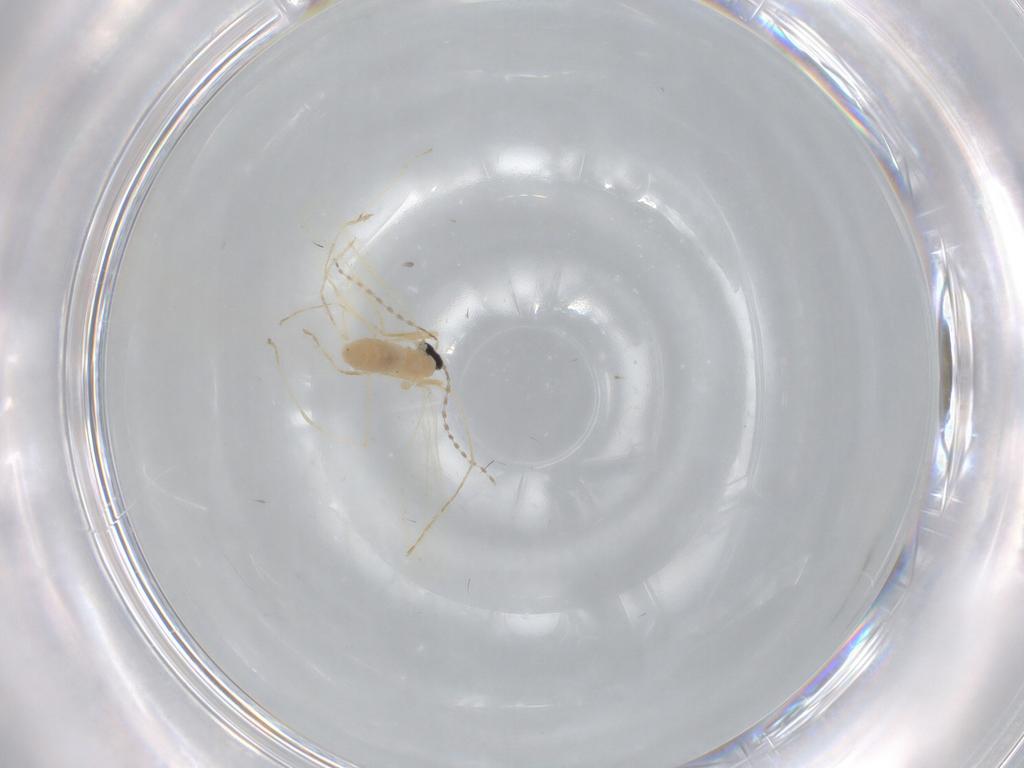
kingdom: Animalia
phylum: Arthropoda
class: Insecta
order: Diptera
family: Cecidomyiidae
